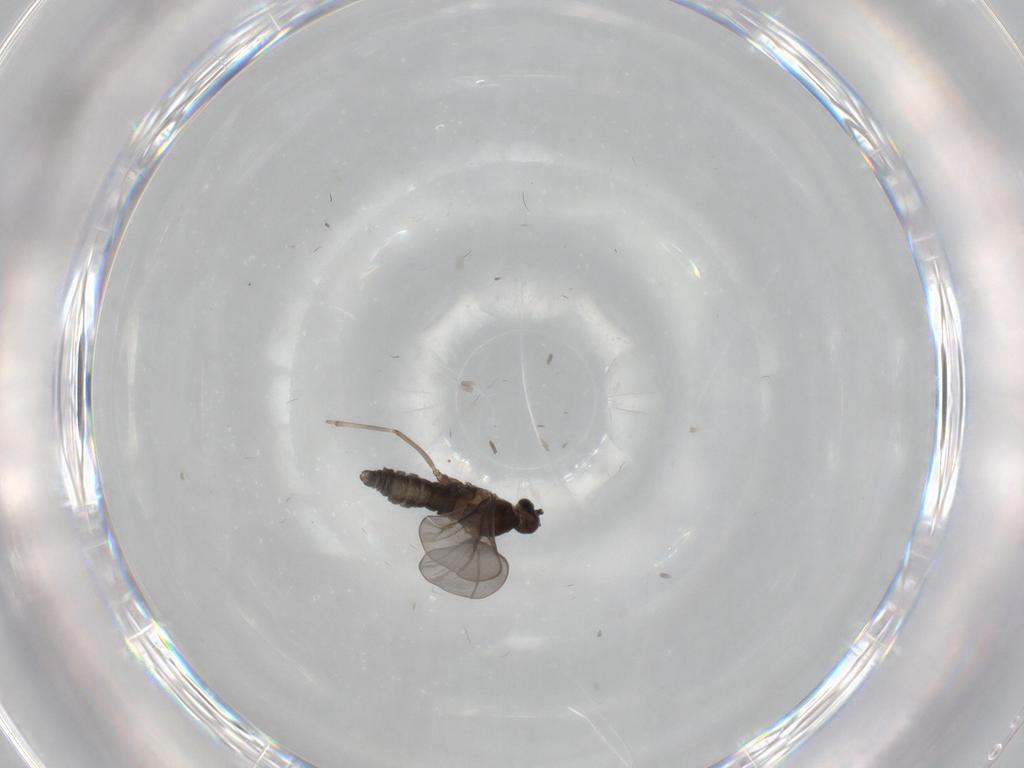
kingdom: Animalia
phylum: Arthropoda
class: Insecta
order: Diptera
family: Cecidomyiidae
